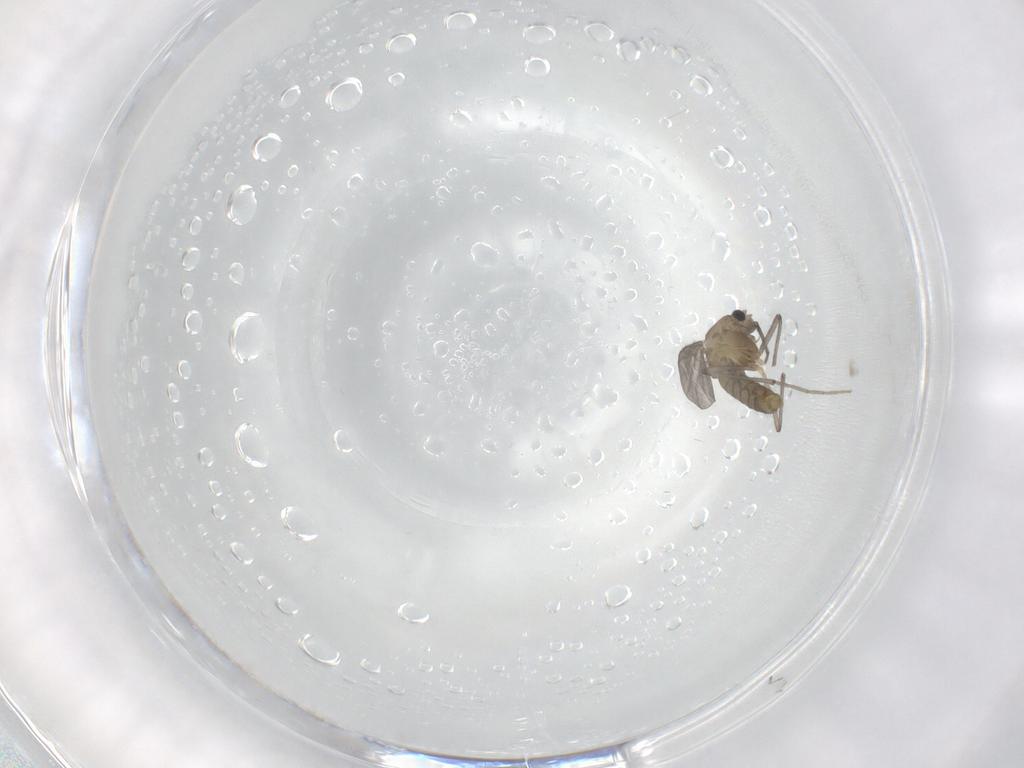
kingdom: Animalia
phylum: Arthropoda
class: Insecta
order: Diptera
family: Chironomidae
